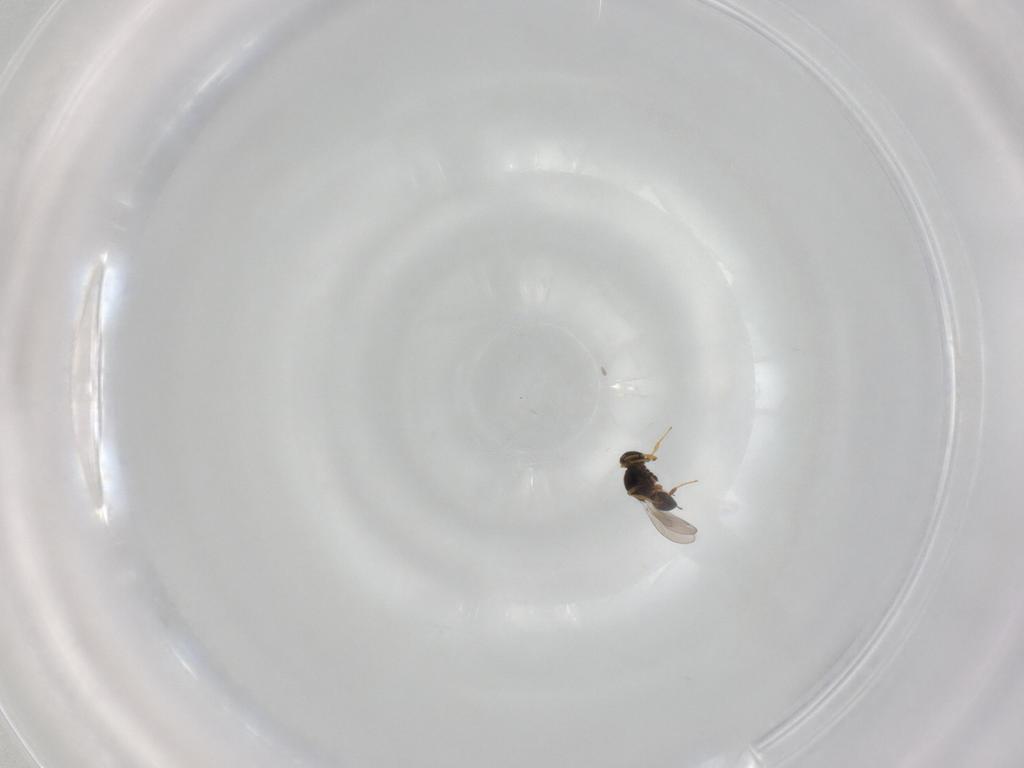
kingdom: Animalia
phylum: Arthropoda
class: Insecta
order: Hymenoptera
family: Platygastridae
